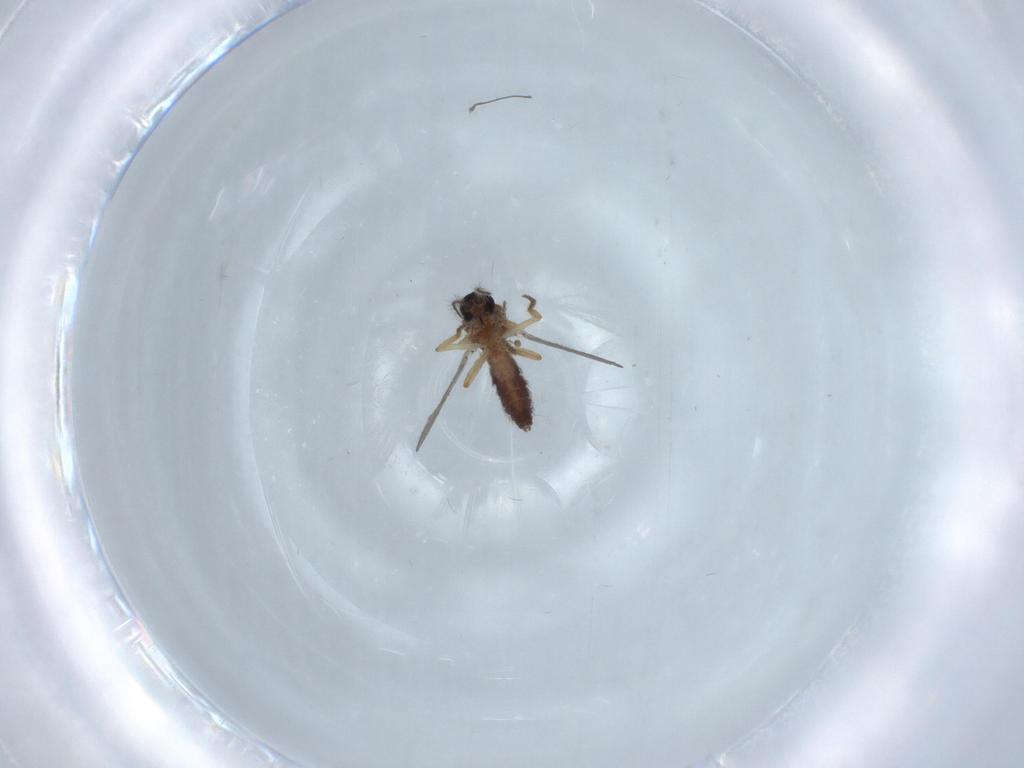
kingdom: Animalia
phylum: Arthropoda
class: Insecta
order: Diptera
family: Ceratopogonidae
